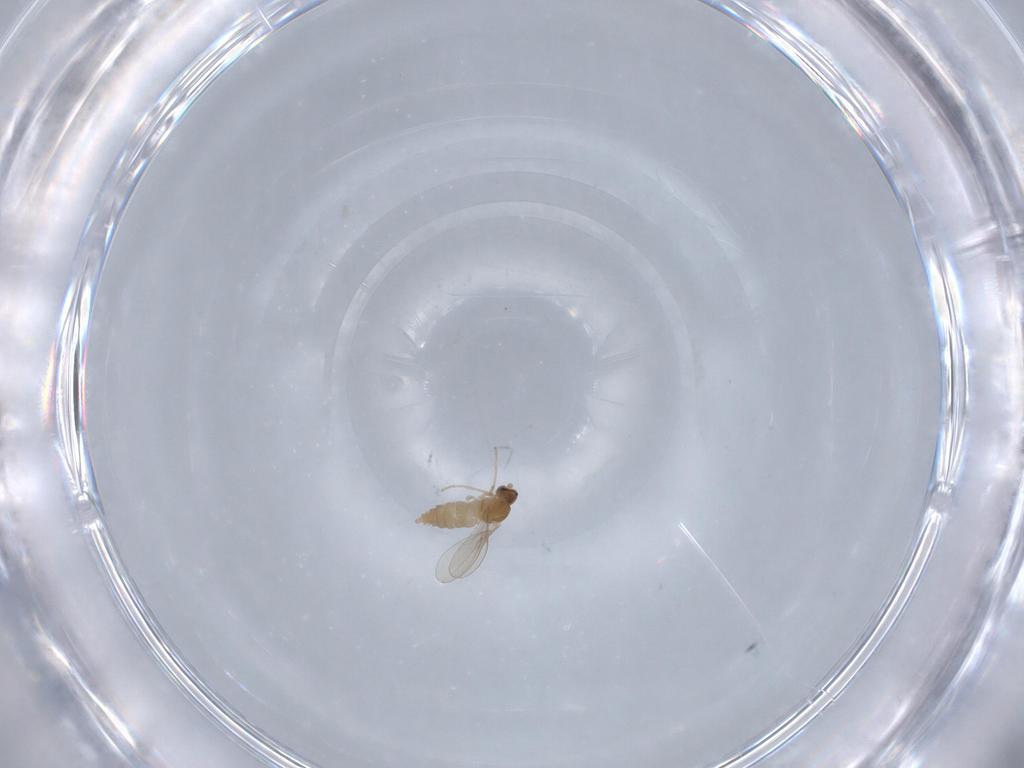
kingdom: Animalia
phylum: Arthropoda
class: Insecta
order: Diptera
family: Cecidomyiidae
